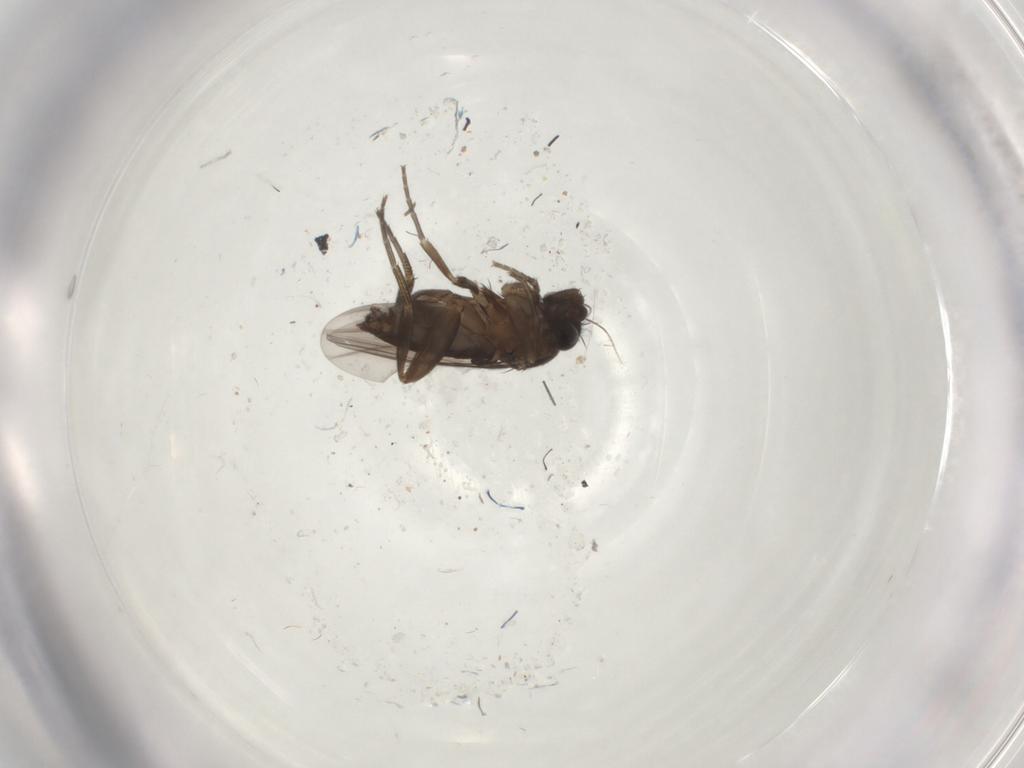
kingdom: Animalia
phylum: Arthropoda
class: Insecta
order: Diptera
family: Phoridae
